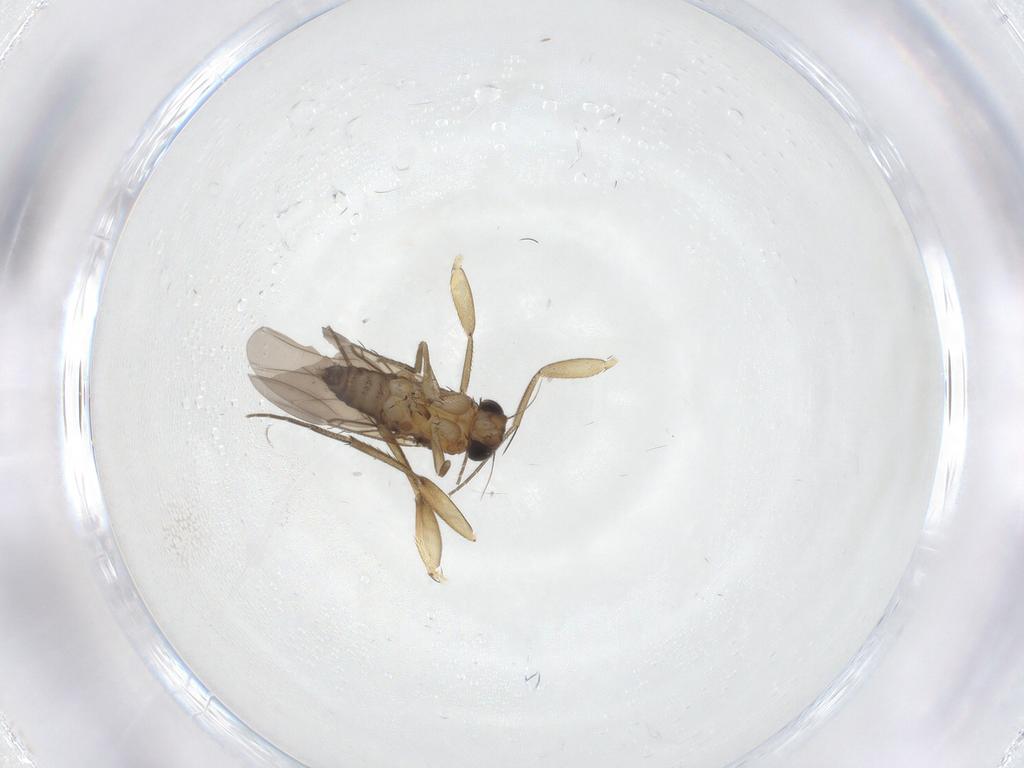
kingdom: Animalia
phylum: Arthropoda
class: Insecta
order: Diptera
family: Phoridae
